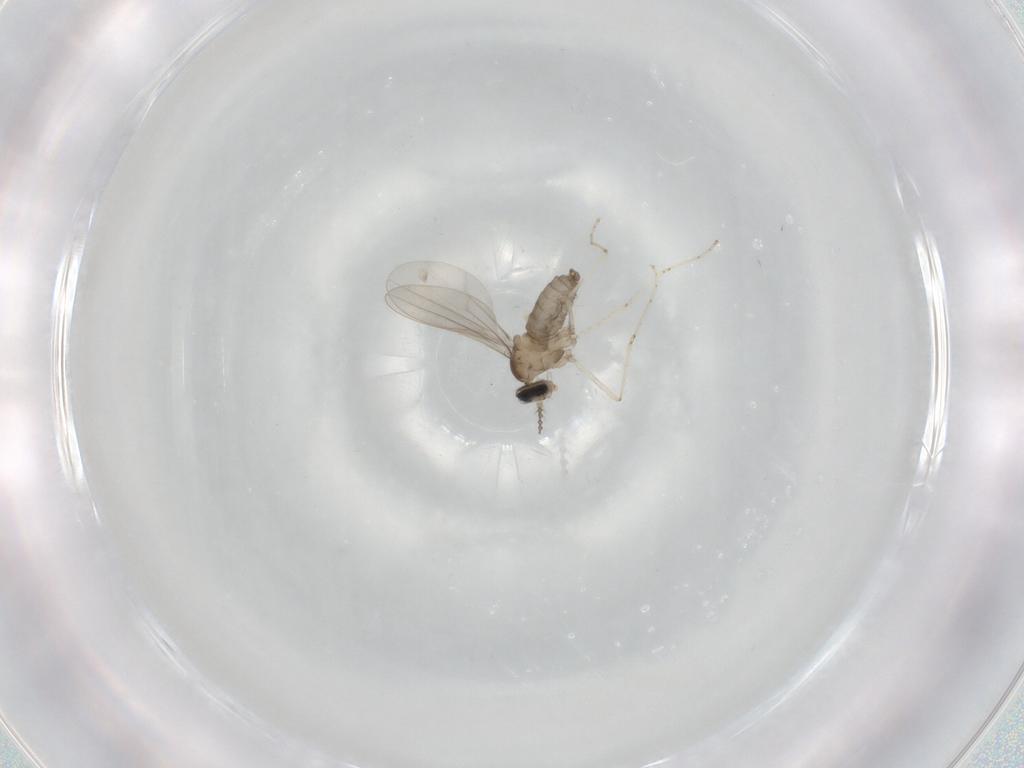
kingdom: Animalia
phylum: Arthropoda
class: Insecta
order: Diptera
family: Cecidomyiidae
